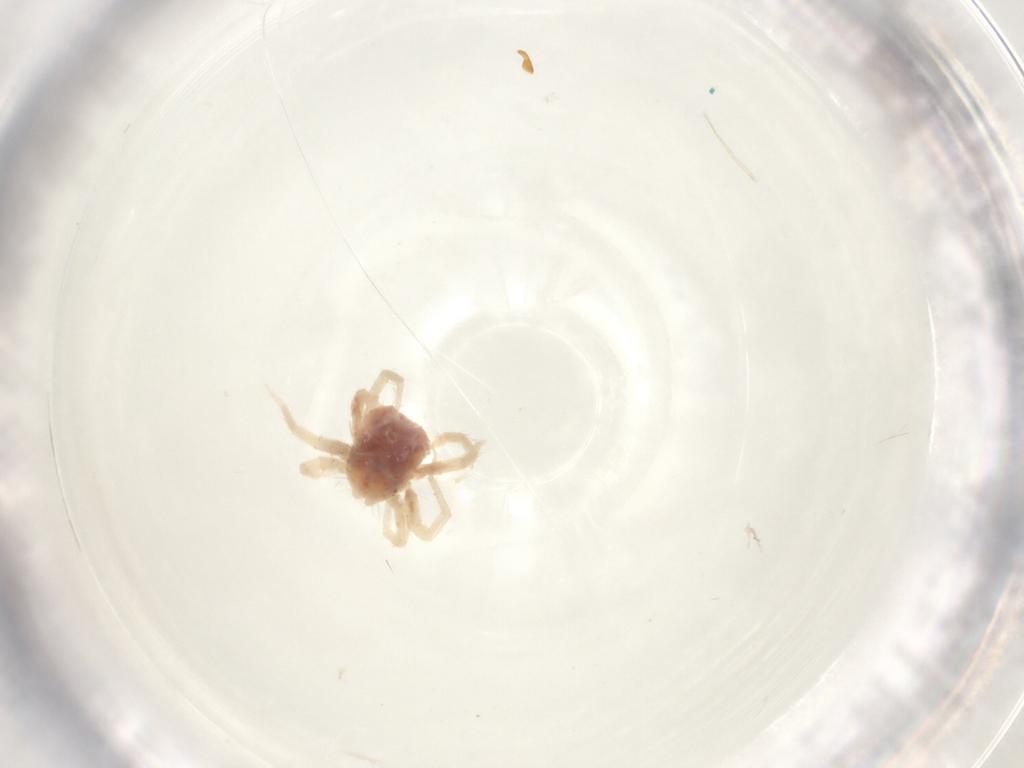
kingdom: Animalia
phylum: Arthropoda
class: Arachnida
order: Trombidiformes
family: Anystidae
